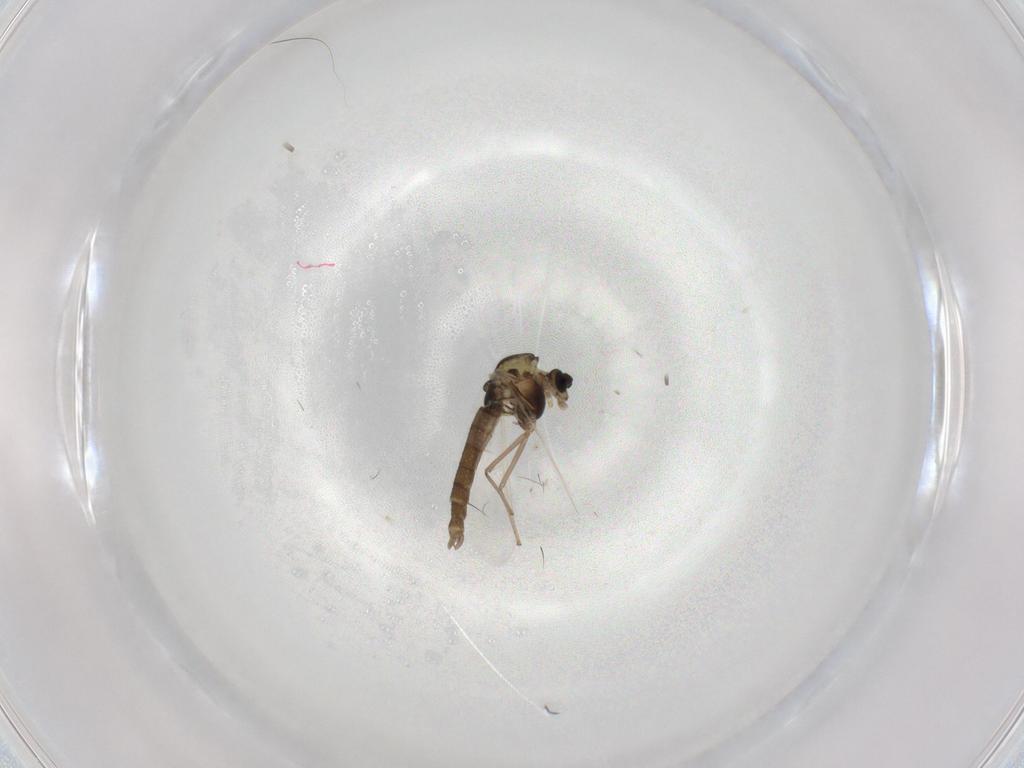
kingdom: Animalia
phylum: Arthropoda
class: Insecta
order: Diptera
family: Chironomidae
